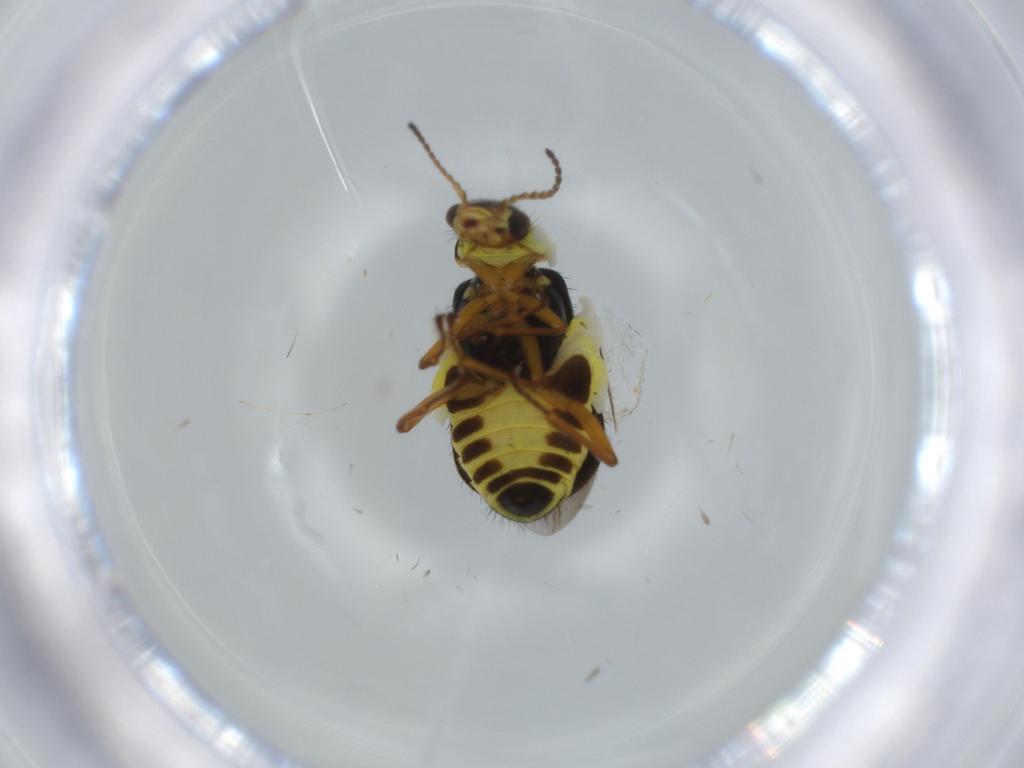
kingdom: Animalia
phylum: Arthropoda
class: Insecta
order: Coleoptera
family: Melyridae
